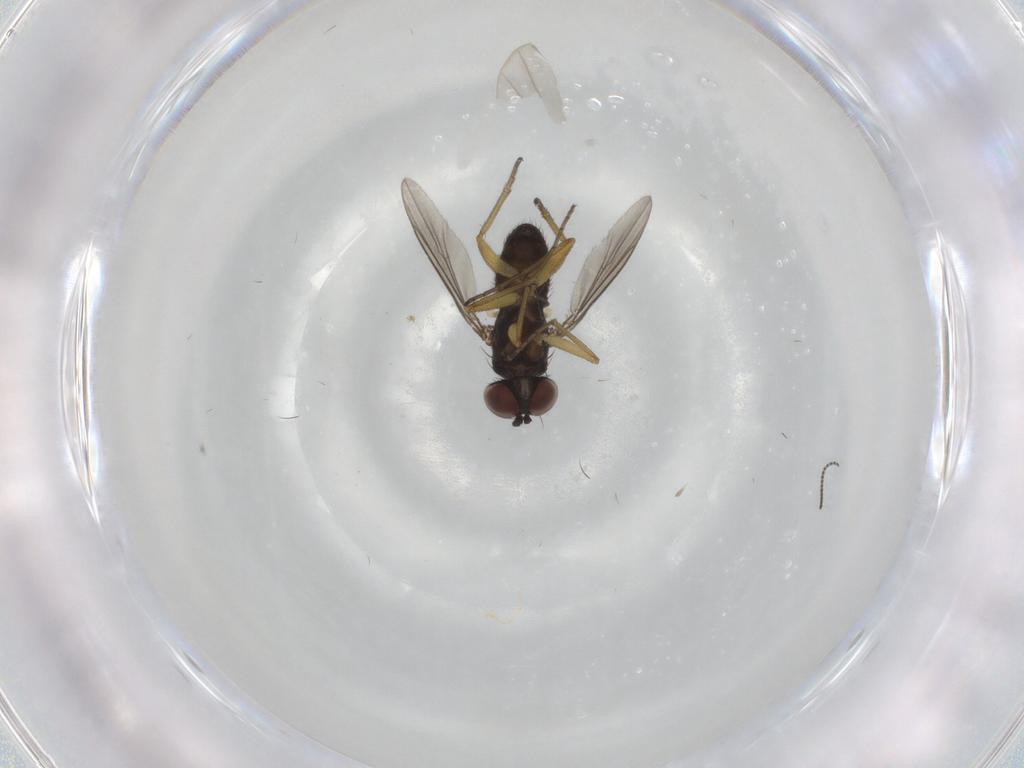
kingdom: Animalia
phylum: Arthropoda
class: Insecta
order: Diptera
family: Dolichopodidae
